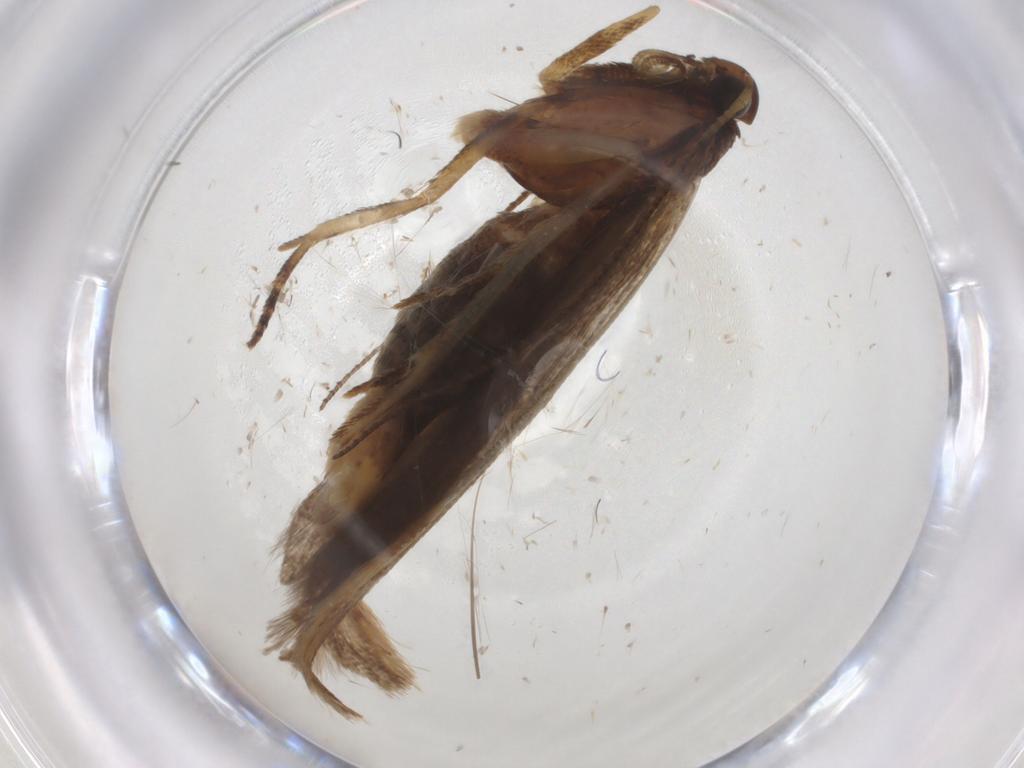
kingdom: Animalia
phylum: Arthropoda
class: Insecta
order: Lepidoptera
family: Gelechiidae
